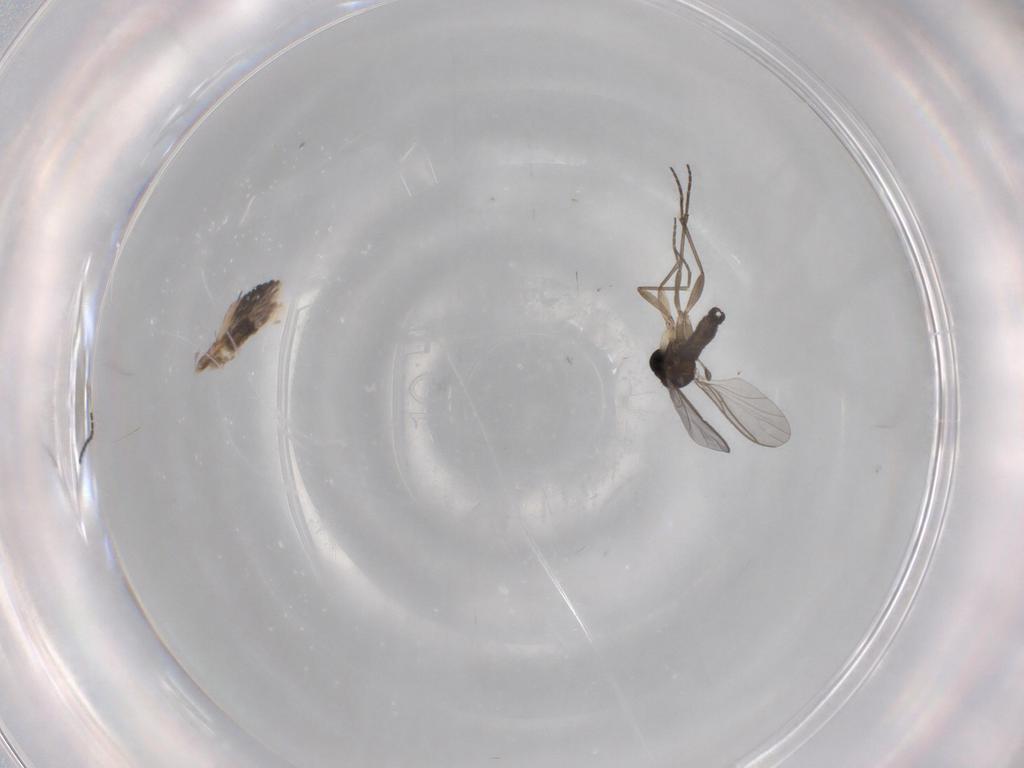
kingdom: Animalia
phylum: Arthropoda
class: Insecta
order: Diptera
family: Sciaridae
